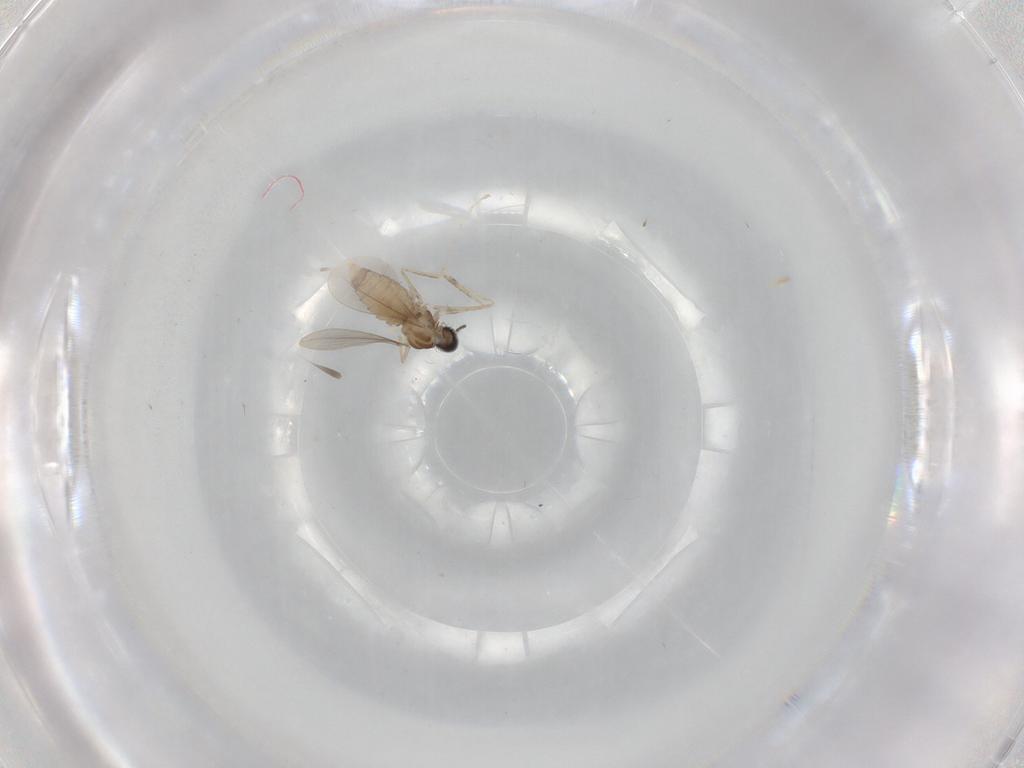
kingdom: Animalia
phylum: Arthropoda
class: Insecta
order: Diptera
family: Cecidomyiidae
